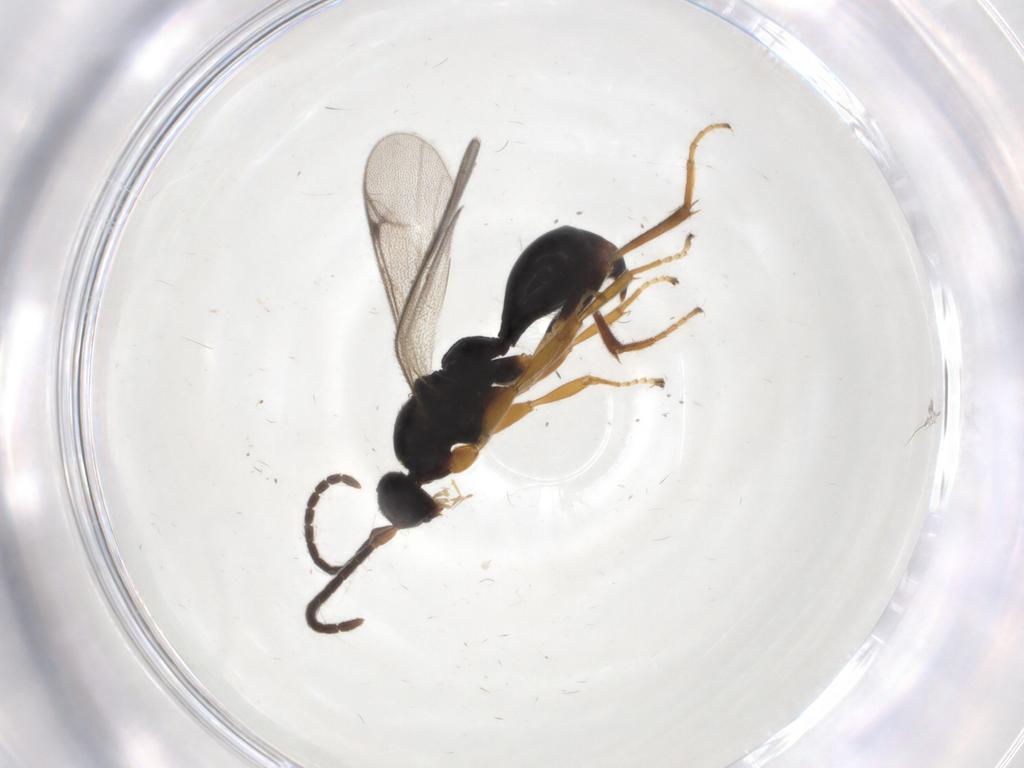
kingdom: Animalia
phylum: Arthropoda
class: Insecta
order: Hymenoptera
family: Proctotrupidae
